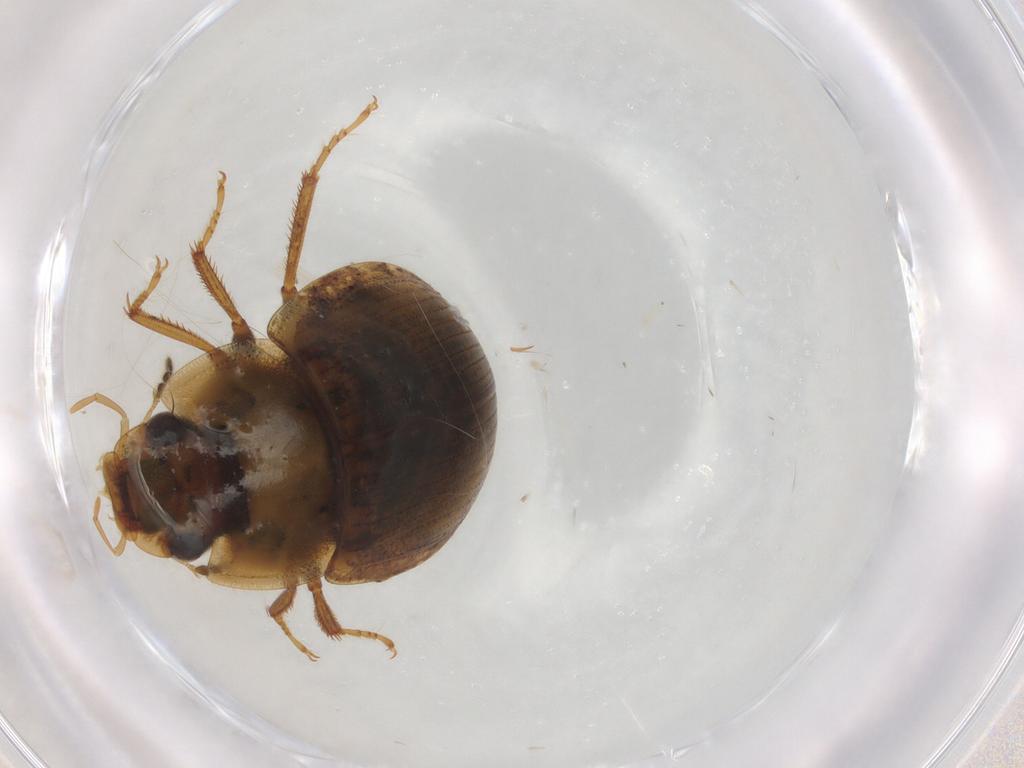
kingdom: Animalia
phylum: Arthropoda
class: Insecta
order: Coleoptera
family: Hydrophilidae
